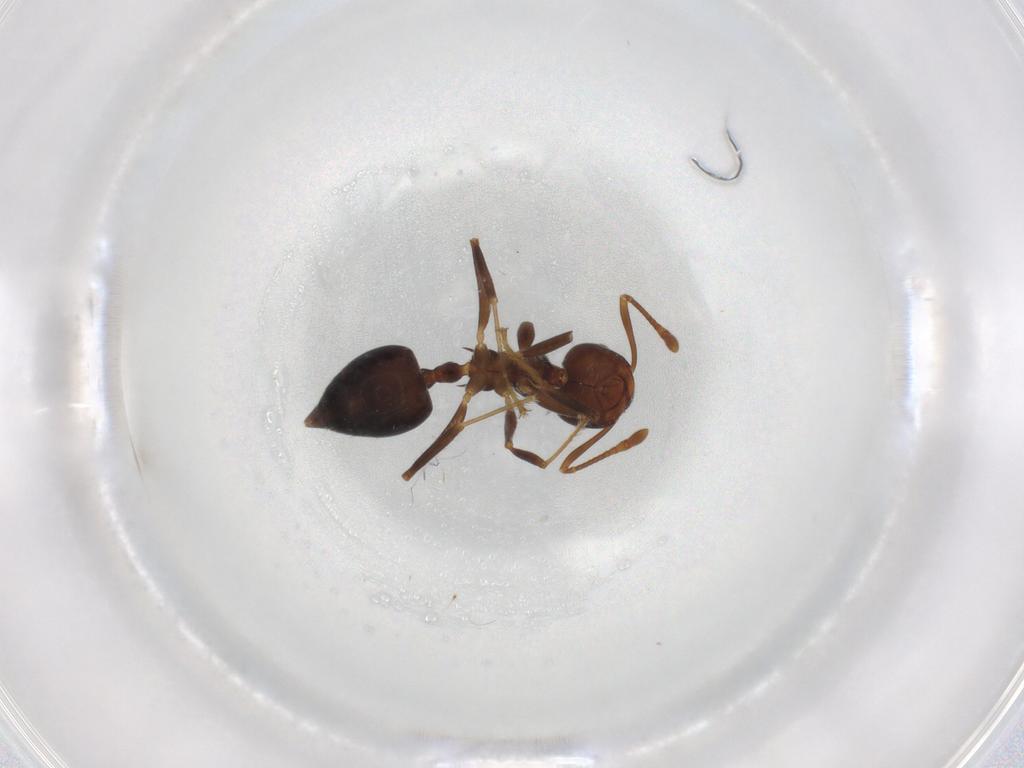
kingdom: Animalia
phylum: Arthropoda
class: Insecta
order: Hymenoptera
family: Formicidae
